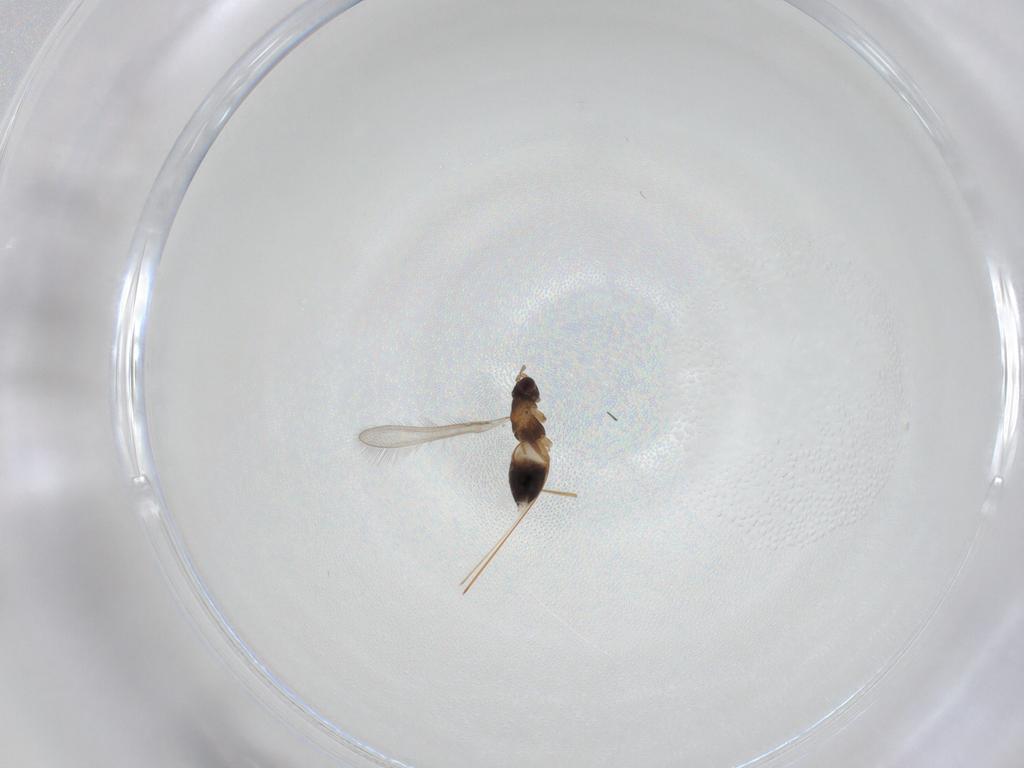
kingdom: Animalia
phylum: Arthropoda
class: Insecta
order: Hymenoptera
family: Mymaridae
